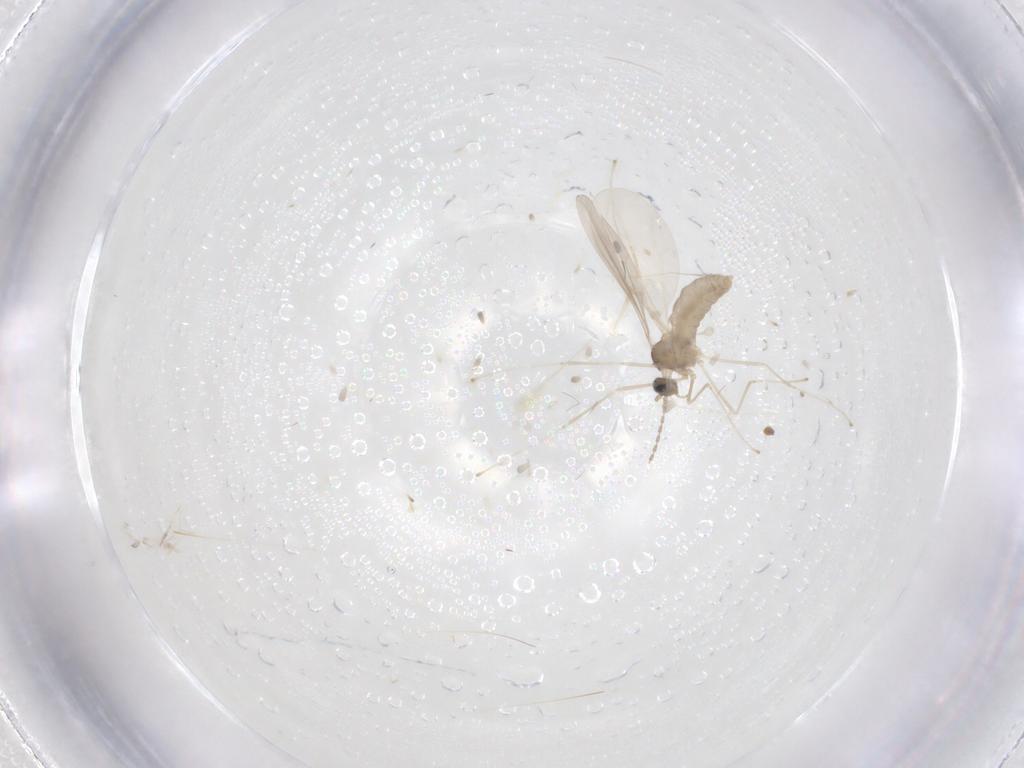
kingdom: Animalia
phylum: Arthropoda
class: Insecta
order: Diptera
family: Cecidomyiidae
